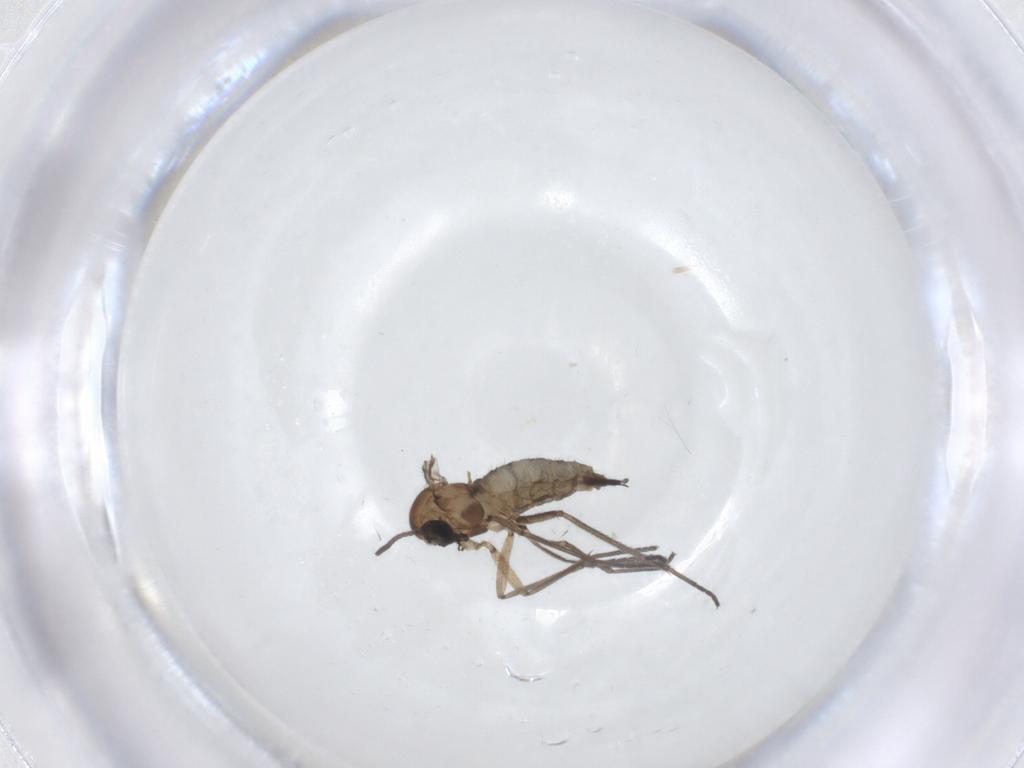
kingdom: Animalia
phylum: Arthropoda
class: Insecta
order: Diptera
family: Sciaridae
